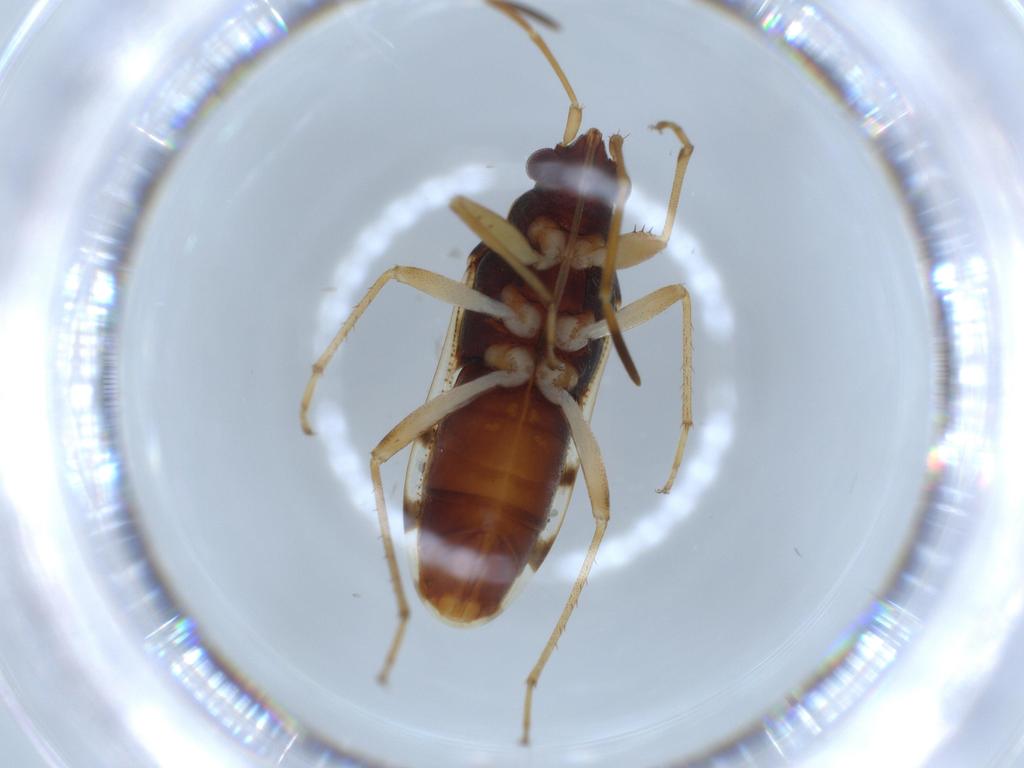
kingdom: Animalia
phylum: Arthropoda
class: Insecta
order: Hemiptera
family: Rhyparochromidae
